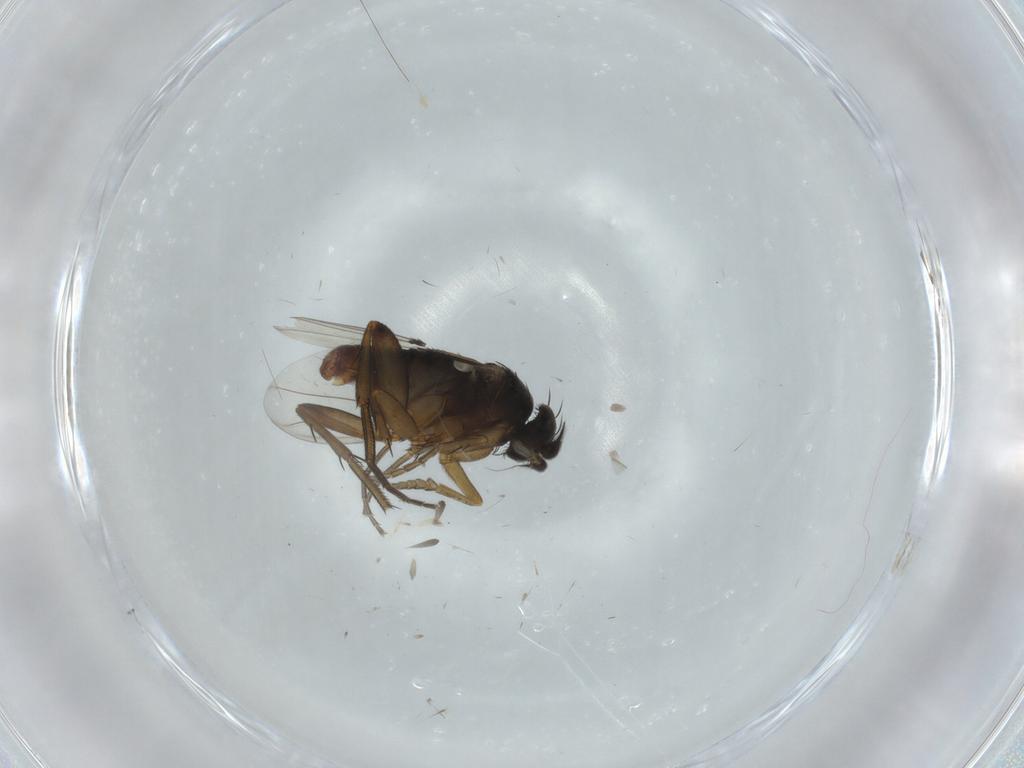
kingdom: Animalia
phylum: Arthropoda
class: Insecta
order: Diptera
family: Phoridae
